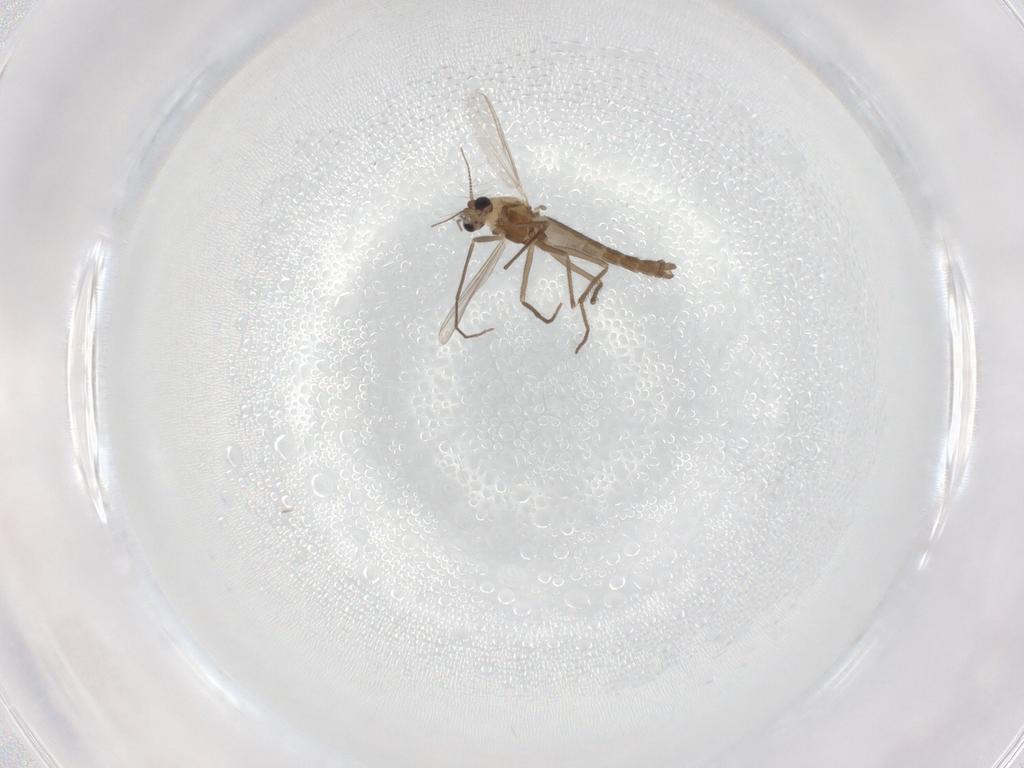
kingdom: Animalia
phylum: Arthropoda
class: Insecta
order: Diptera
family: Chironomidae
